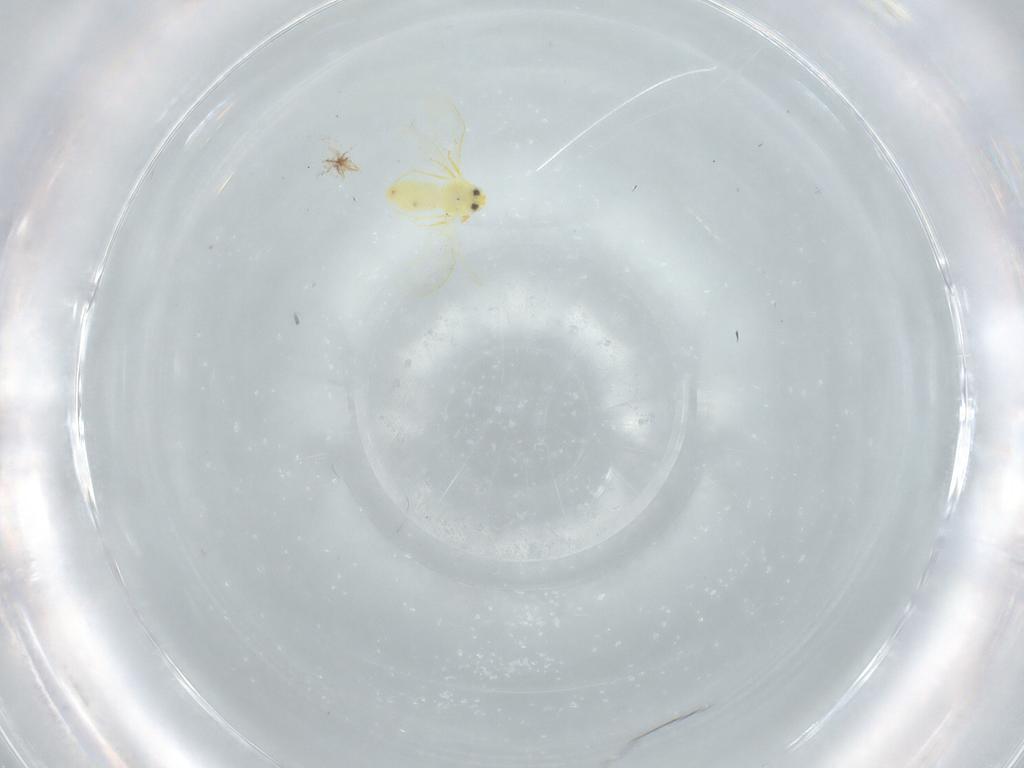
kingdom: Animalia
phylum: Arthropoda
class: Insecta
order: Hemiptera
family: Aleyrodidae
